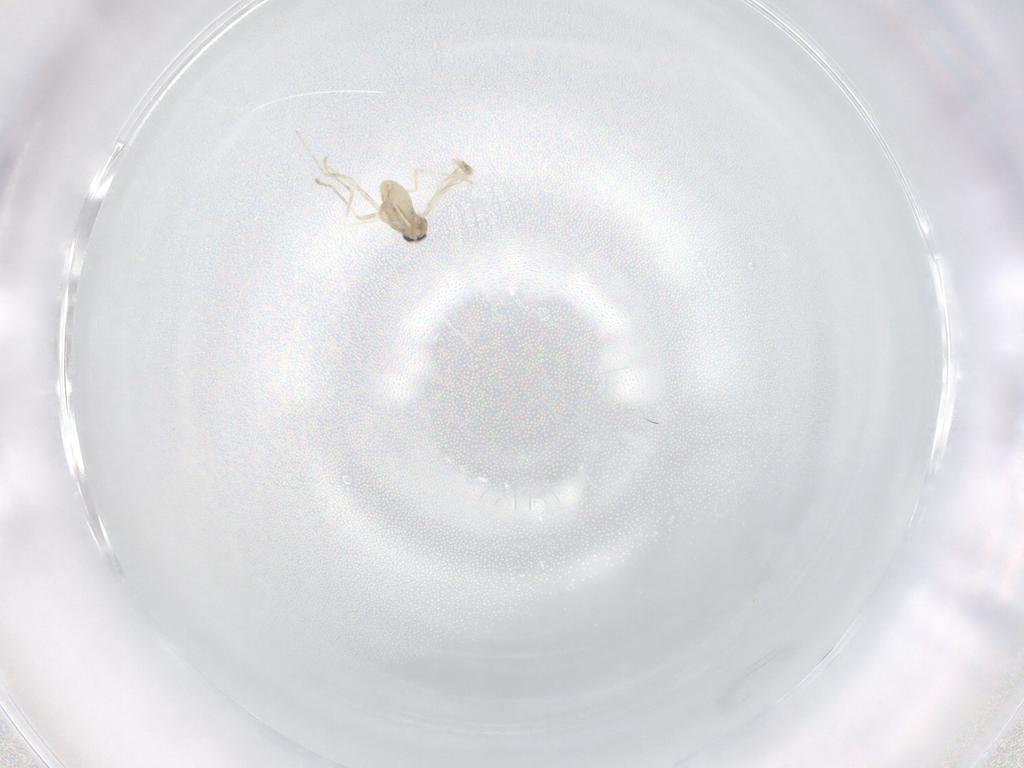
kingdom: Animalia
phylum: Arthropoda
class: Insecta
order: Diptera
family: Cecidomyiidae
